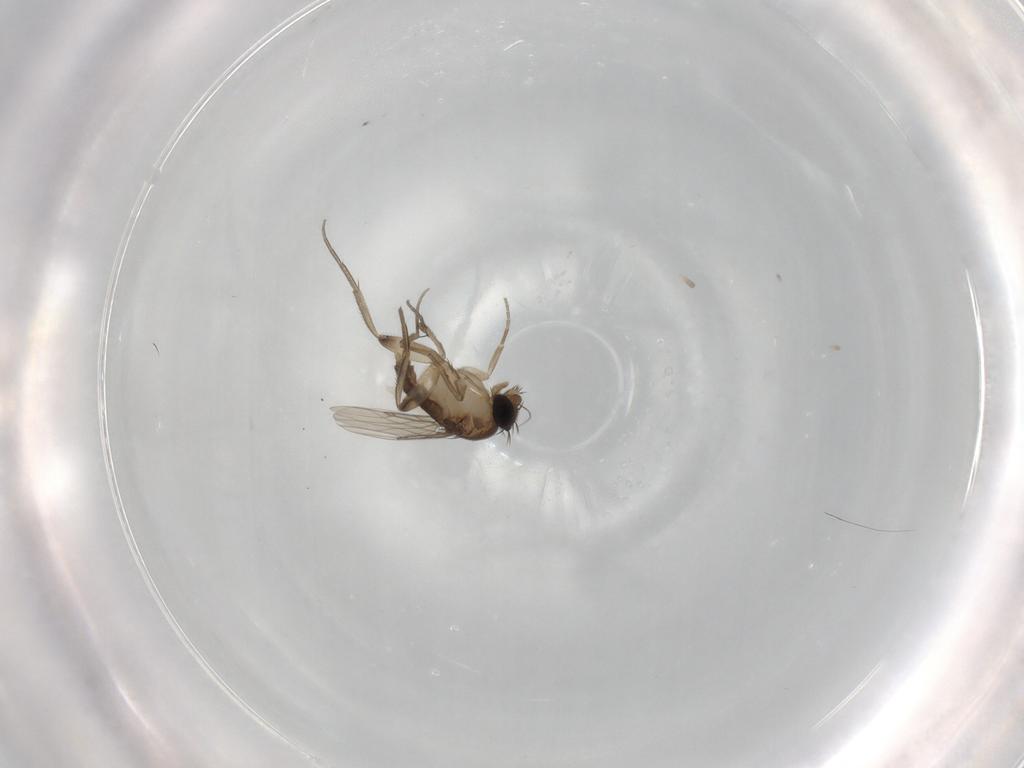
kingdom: Animalia
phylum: Arthropoda
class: Insecta
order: Diptera
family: Phoridae
